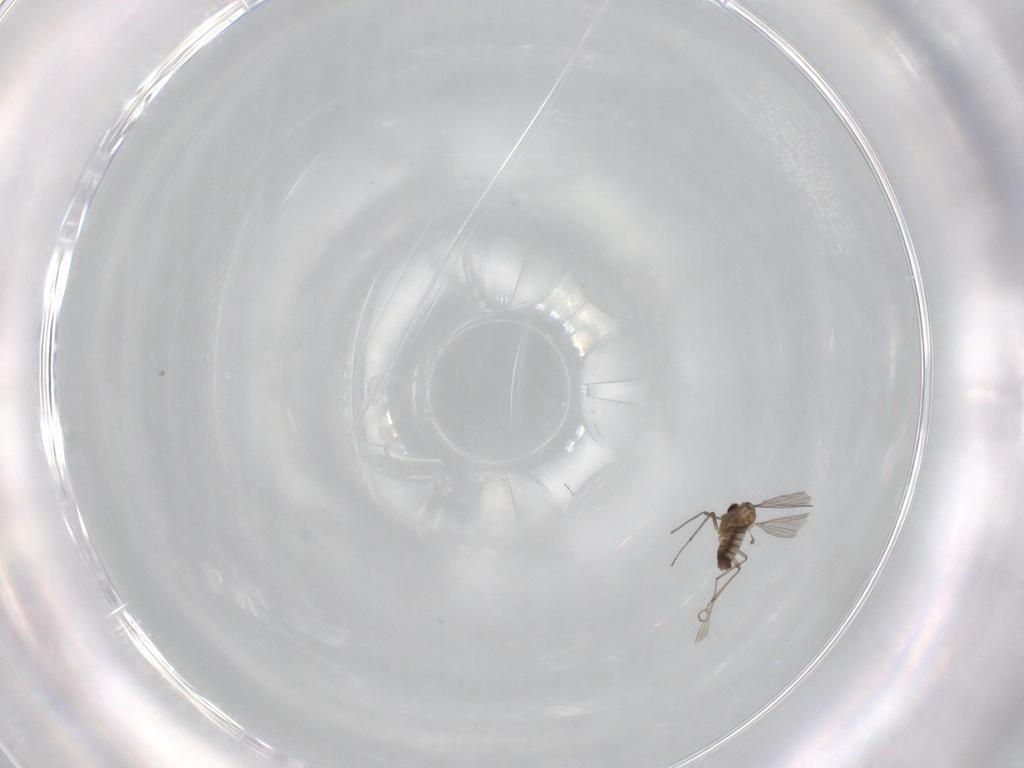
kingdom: Animalia
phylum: Arthropoda
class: Insecta
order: Diptera
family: Chironomidae
